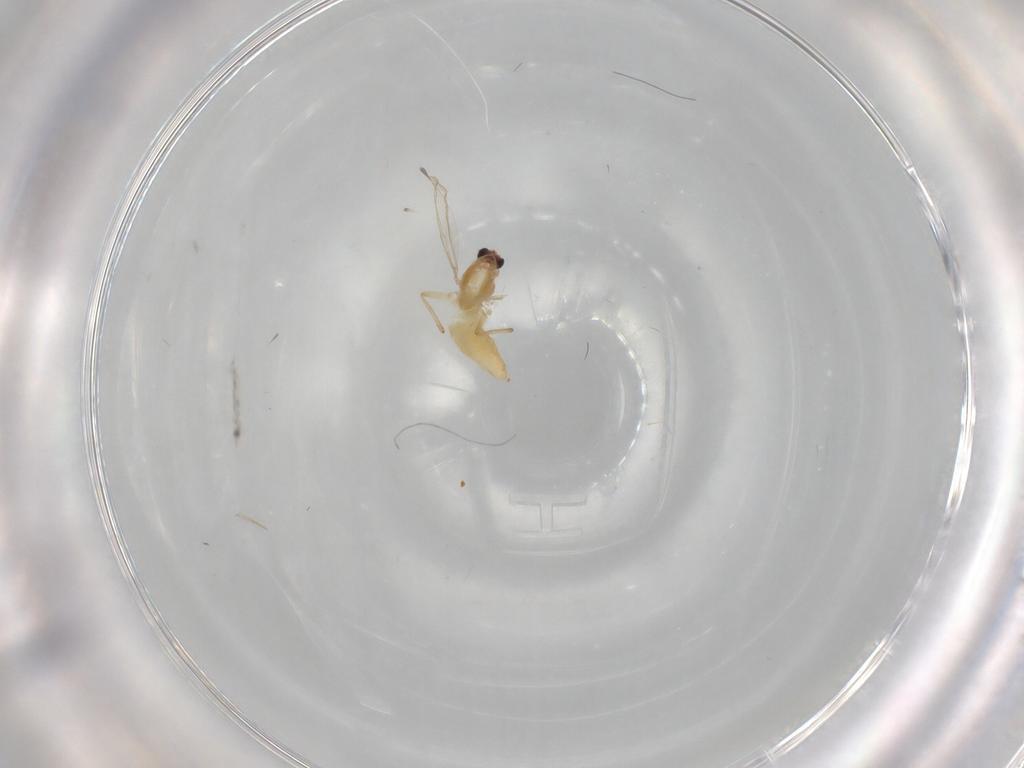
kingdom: Animalia
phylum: Arthropoda
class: Insecta
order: Diptera
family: Chironomidae
